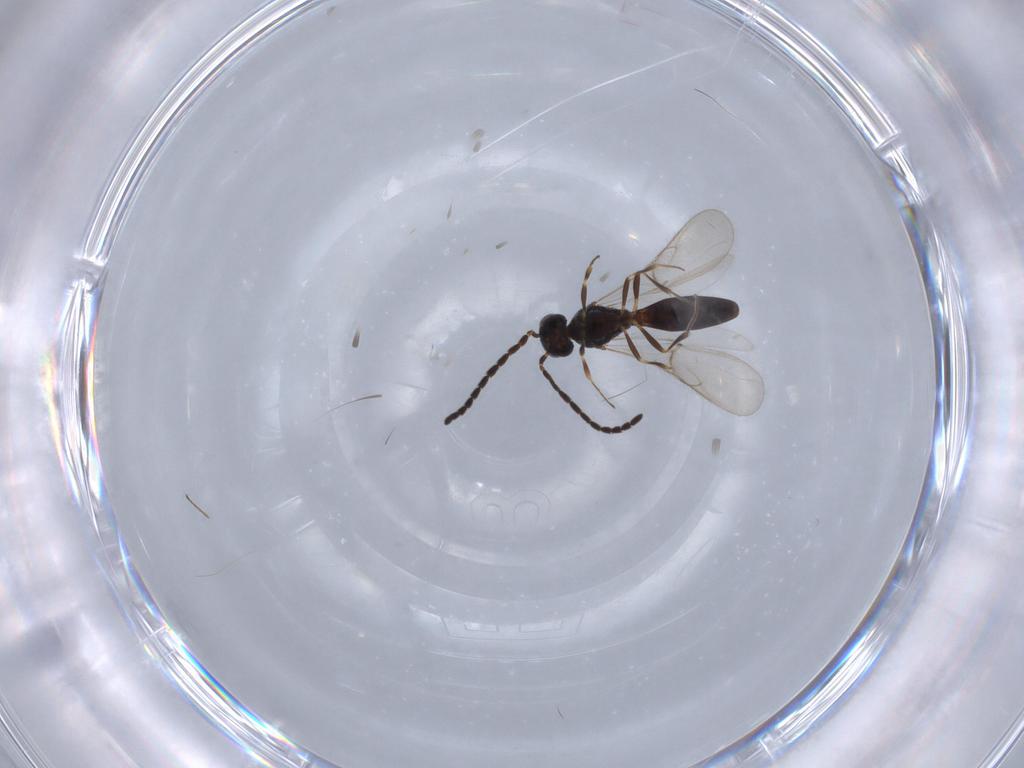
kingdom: Animalia
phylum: Arthropoda
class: Insecta
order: Hymenoptera
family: Scelionidae
